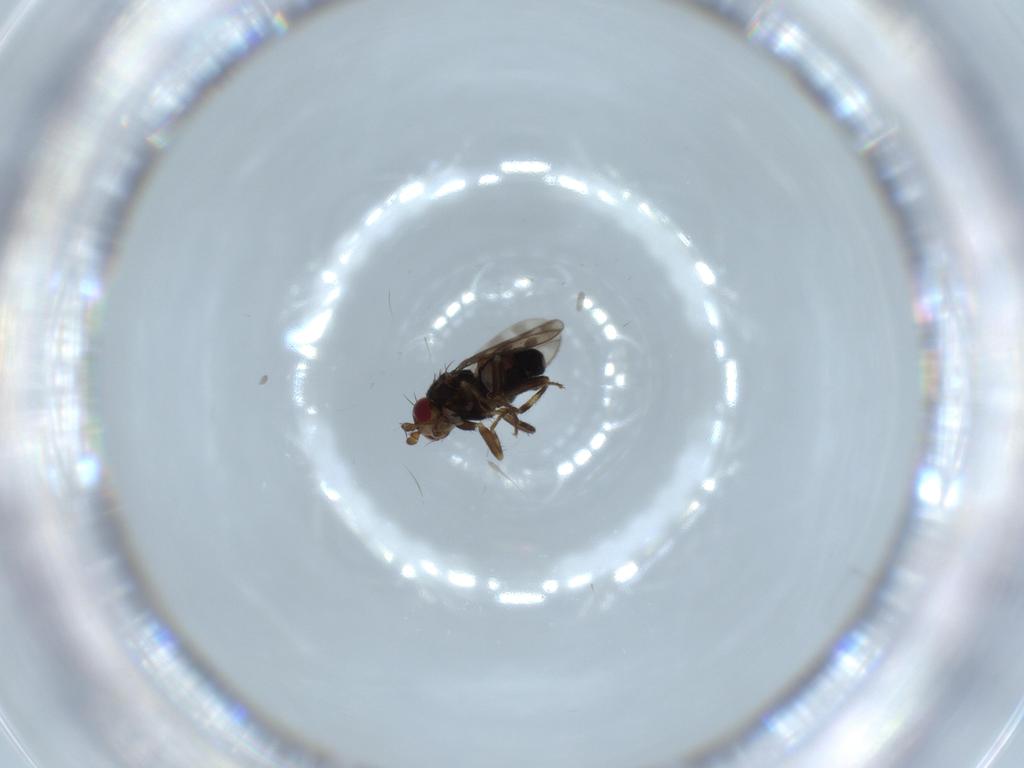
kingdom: Animalia
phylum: Arthropoda
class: Insecta
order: Diptera
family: Sphaeroceridae
